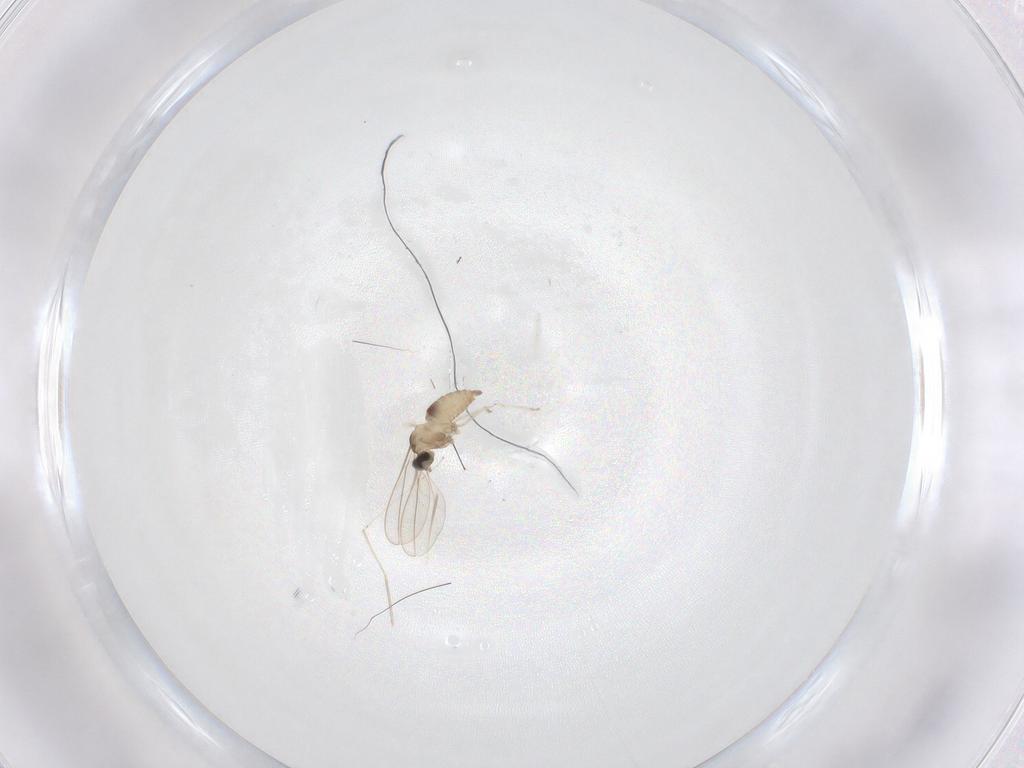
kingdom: Animalia
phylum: Arthropoda
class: Insecta
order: Diptera
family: Cecidomyiidae
